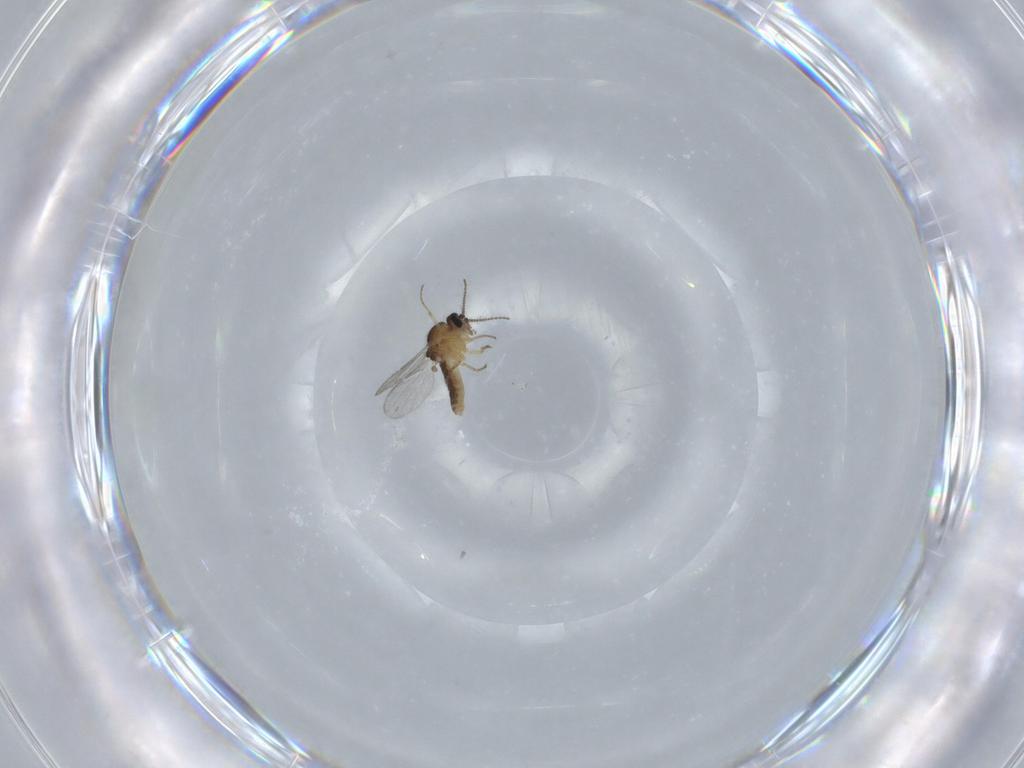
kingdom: Animalia
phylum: Arthropoda
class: Insecta
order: Diptera
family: Ceratopogonidae
